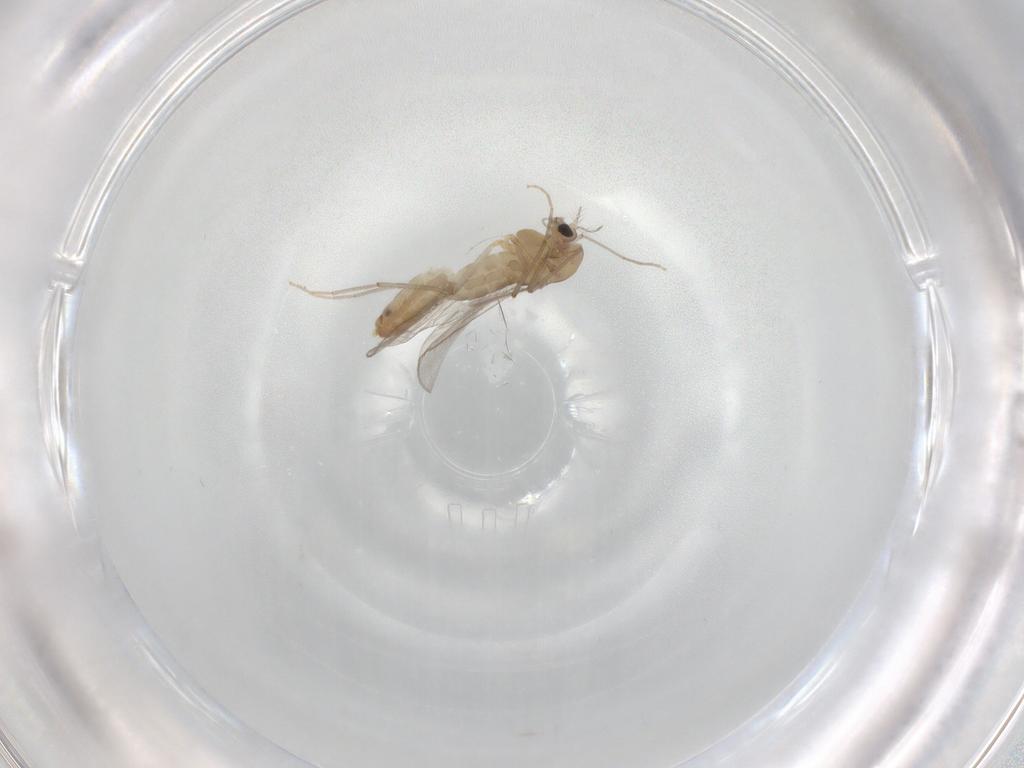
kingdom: Animalia
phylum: Arthropoda
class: Insecta
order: Diptera
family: Chironomidae
